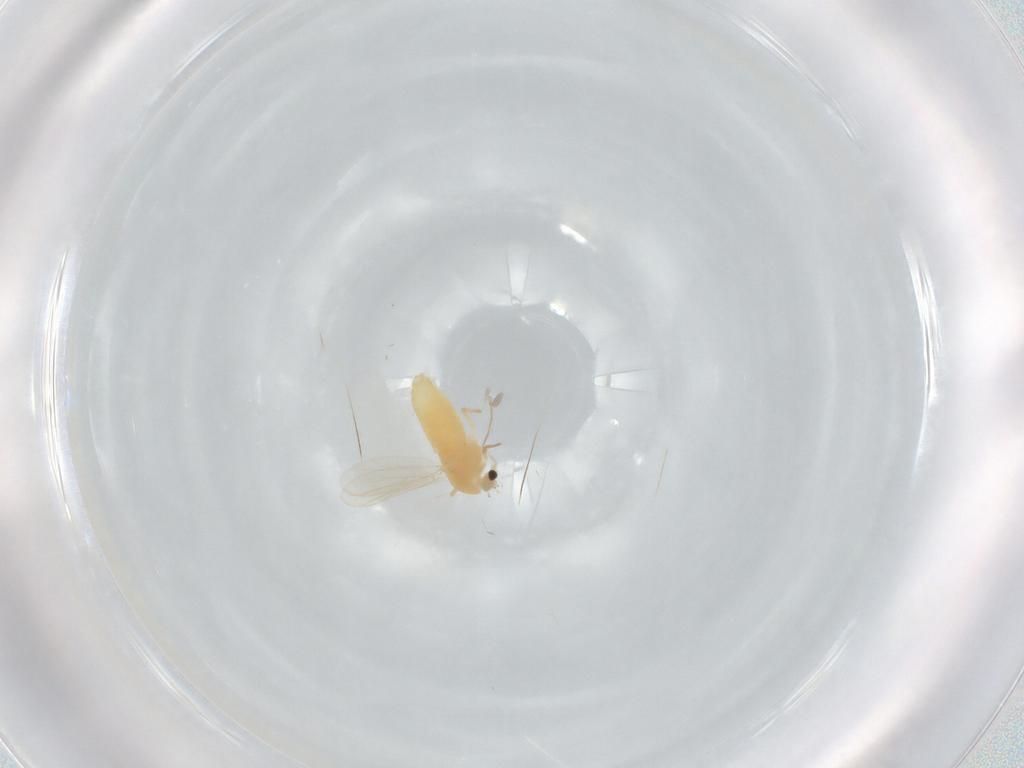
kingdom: Animalia
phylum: Arthropoda
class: Insecta
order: Diptera
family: Chironomidae
